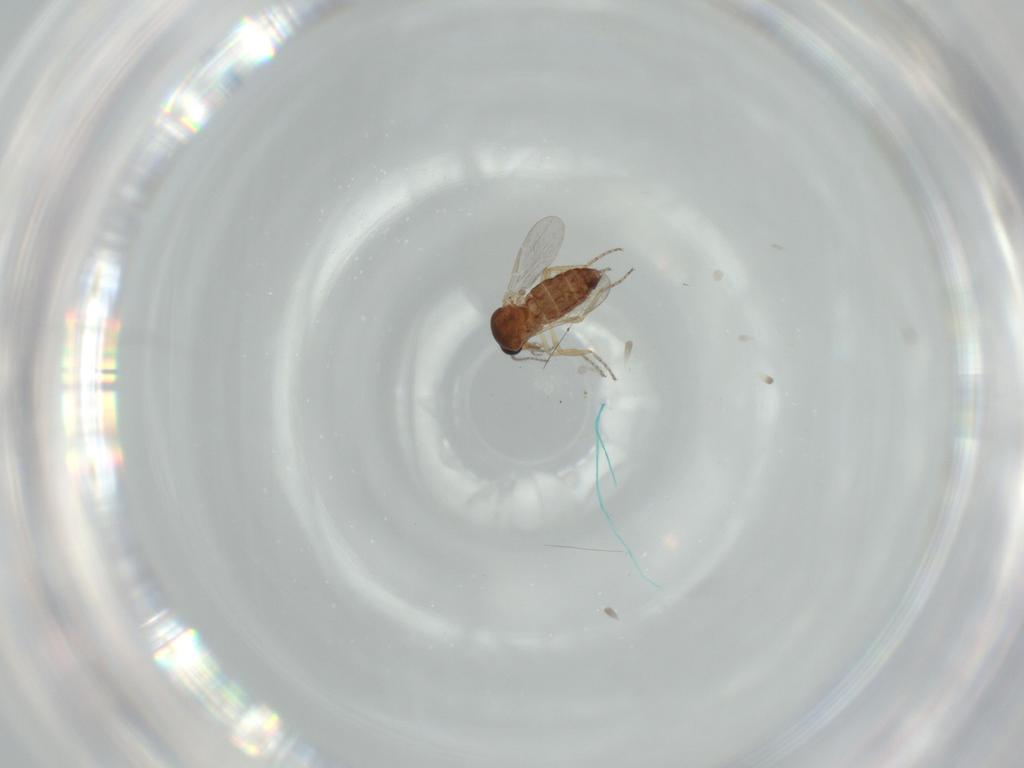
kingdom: Animalia
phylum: Arthropoda
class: Insecta
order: Diptera
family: Ceratopogonidae
